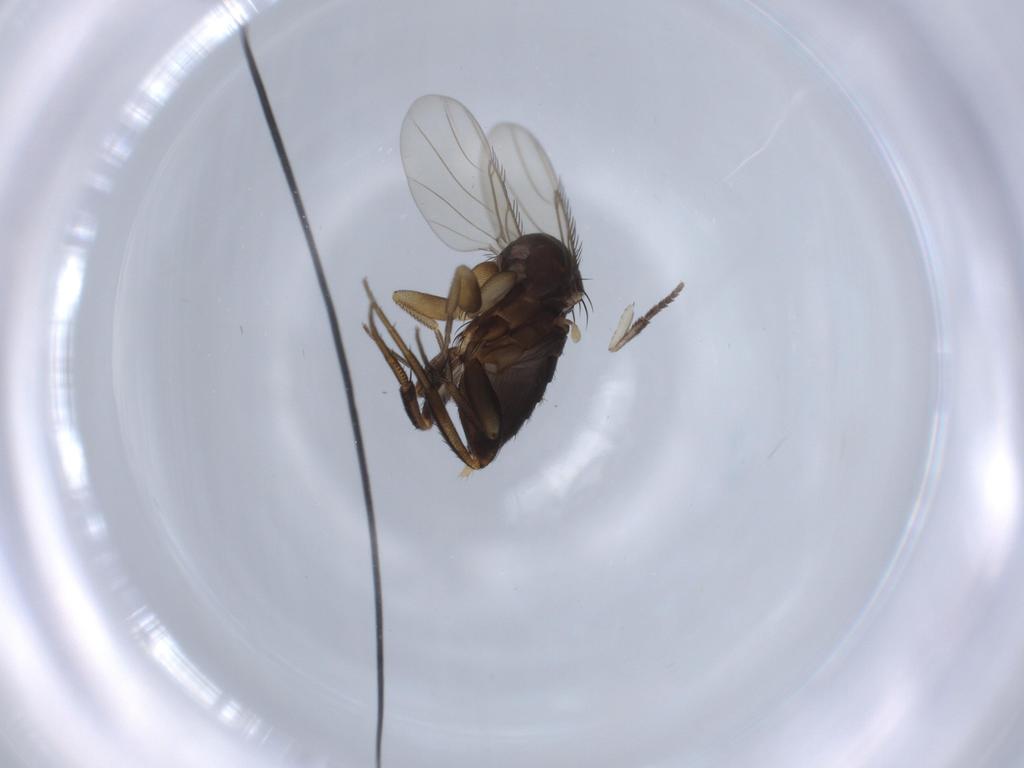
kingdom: Animalia
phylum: Arthropoda
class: Insecta
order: Diptera
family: Phoridae
